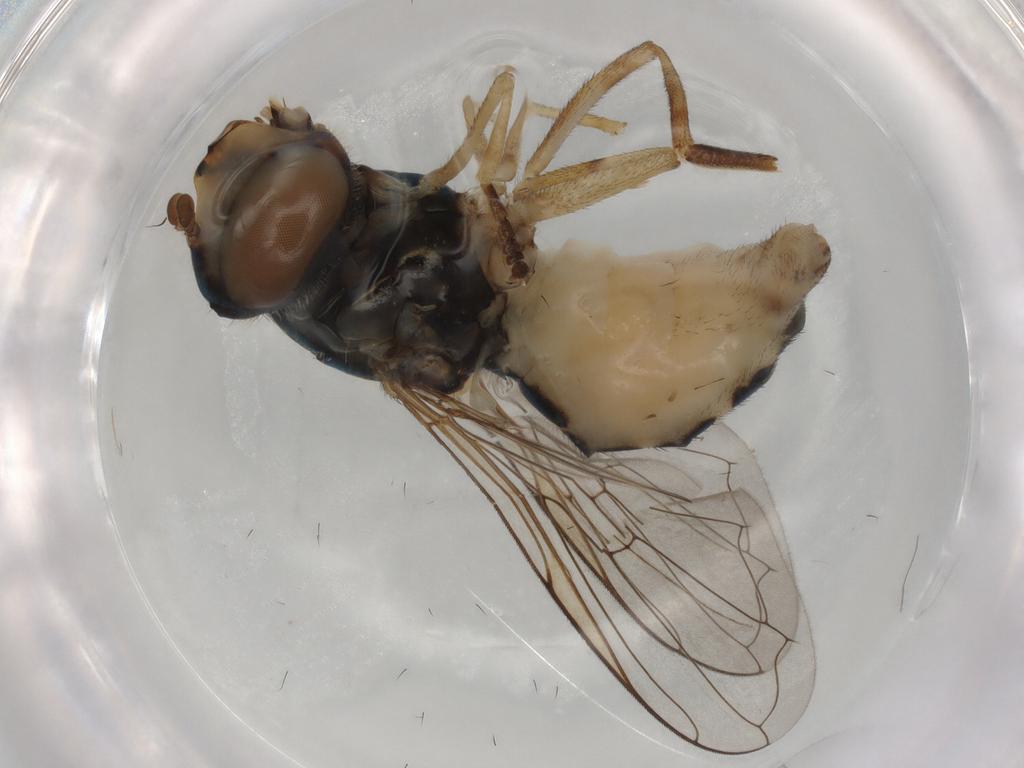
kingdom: Animalia
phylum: Arthropoda
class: Insecta
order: Diptera
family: Syrphidae
